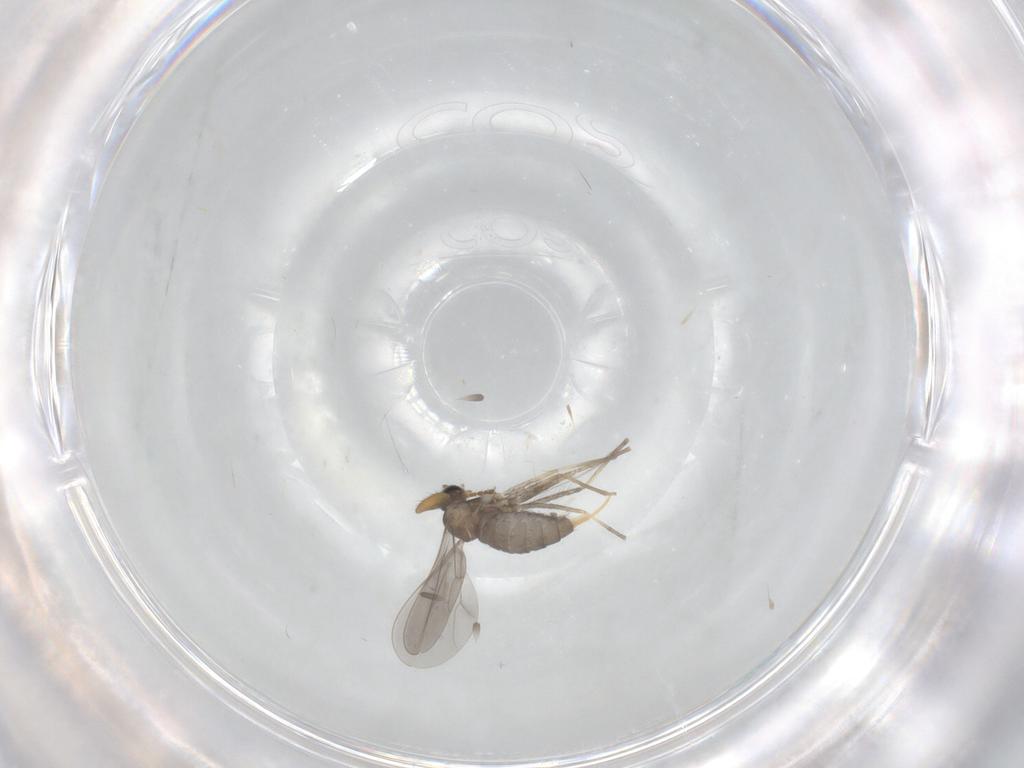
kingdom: Animalia
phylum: Arthropoda
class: Insecta
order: Diptera
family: Cecidomyiidae
